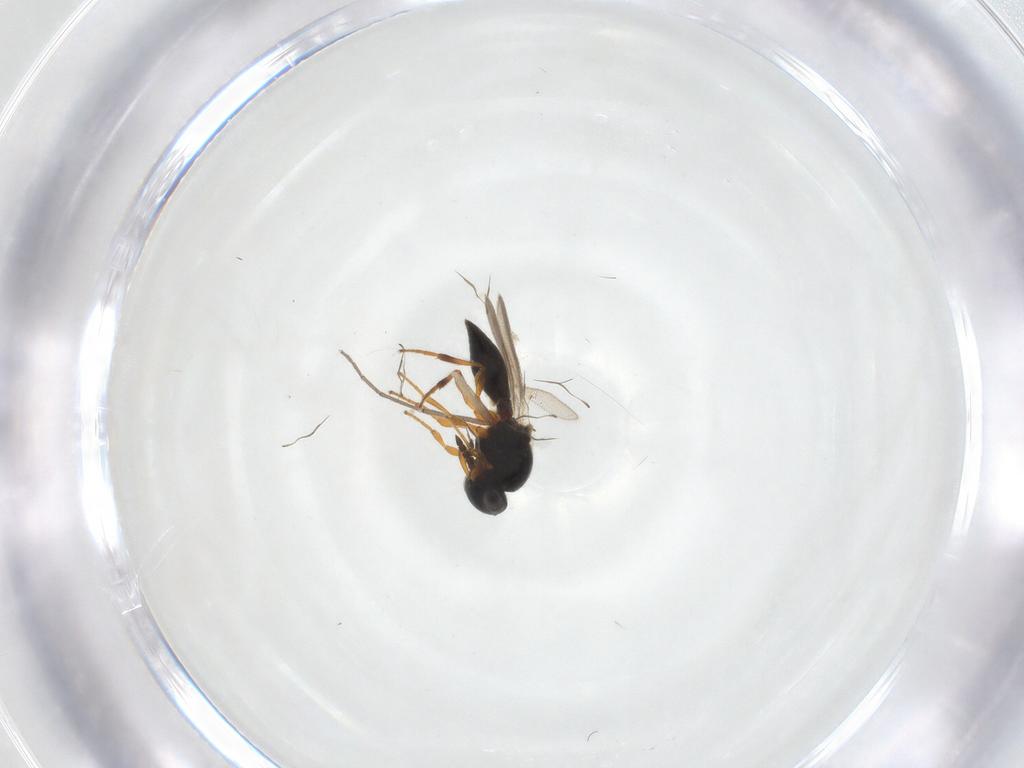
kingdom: Animalia
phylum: Arthropoda
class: Insecta
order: Hymenoptera
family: Platygastridae
